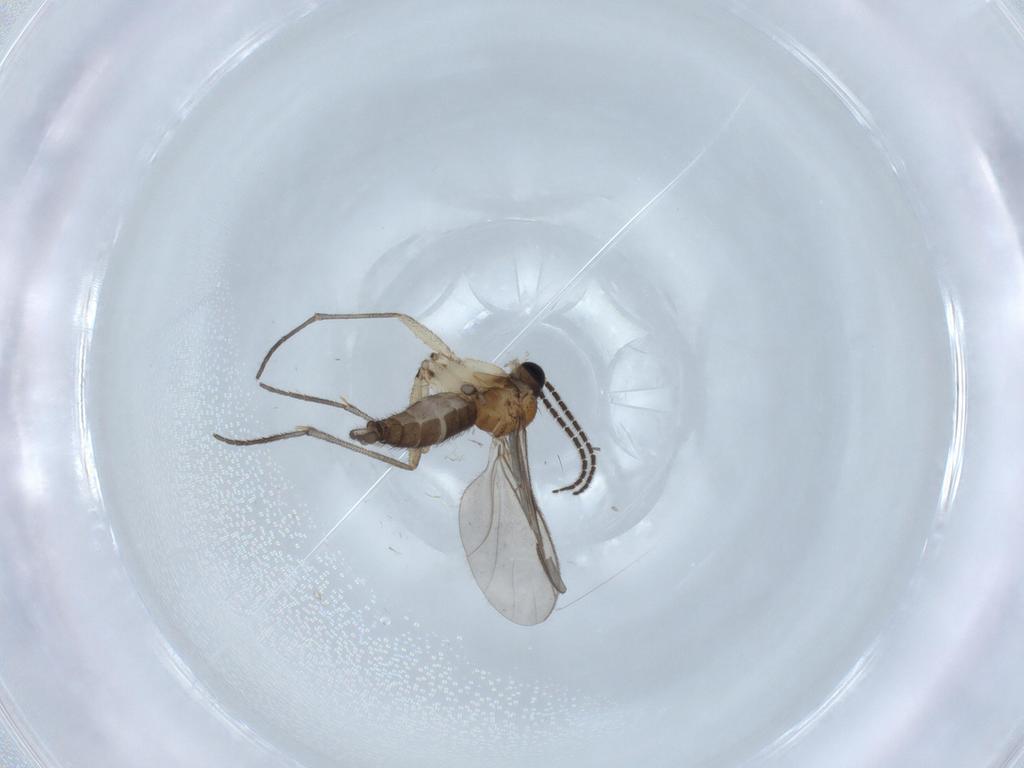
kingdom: Animalia
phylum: Arthropoda
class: Insecta
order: Diptera
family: Sciaridae
